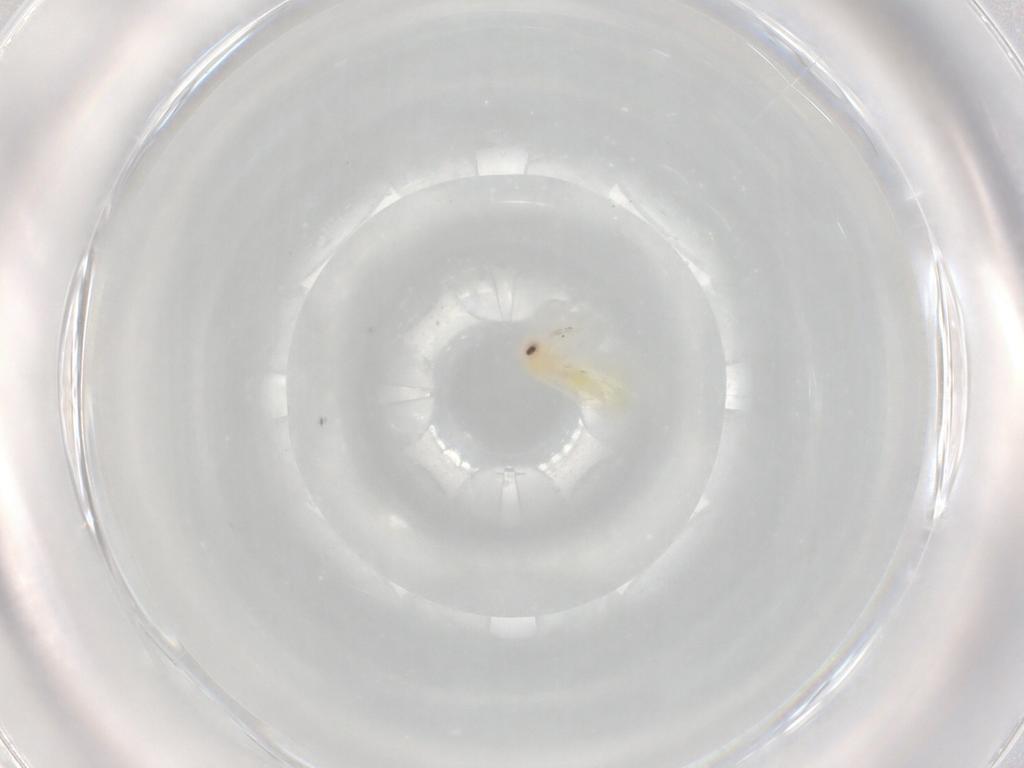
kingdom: Animalia
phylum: Arthropoda
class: Insecta
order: Hemiptera
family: Aleyrodidae
